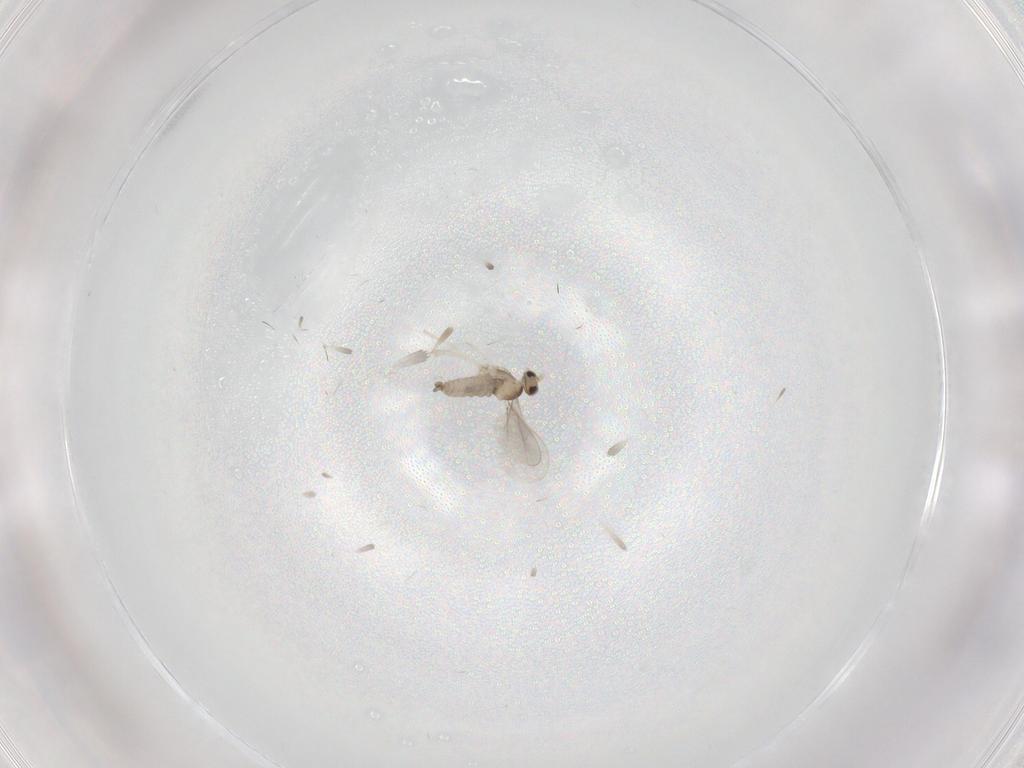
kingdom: Animalia
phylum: Arthropoda
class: Insecta
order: Diptera
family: Cecidomyiidae
